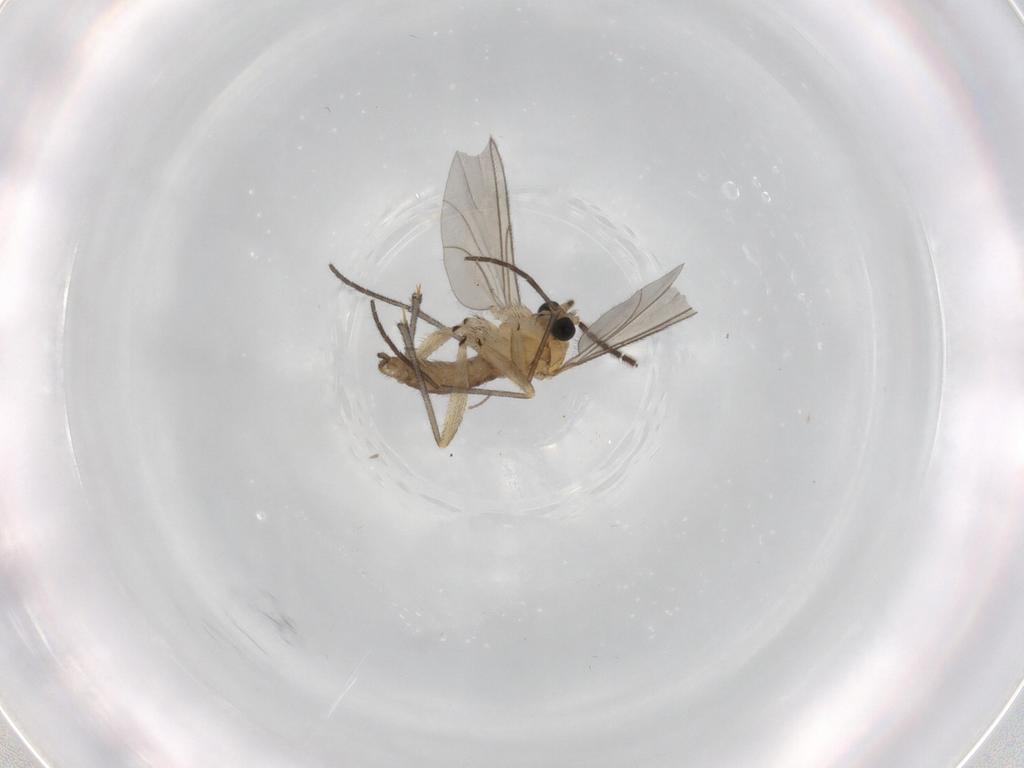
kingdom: Animalia
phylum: Arthropoda
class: Insecta
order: Diptera
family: Sciaridae
